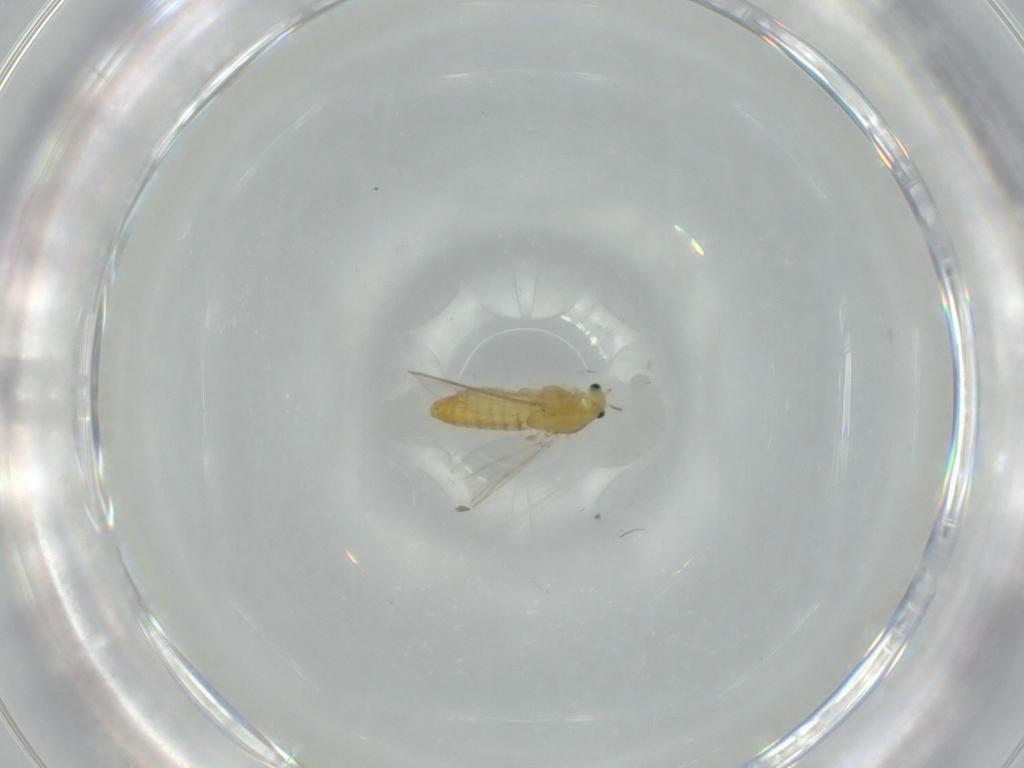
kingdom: Animalia
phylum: Arthropoda
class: Insecta
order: Diptera
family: Chironomidae
